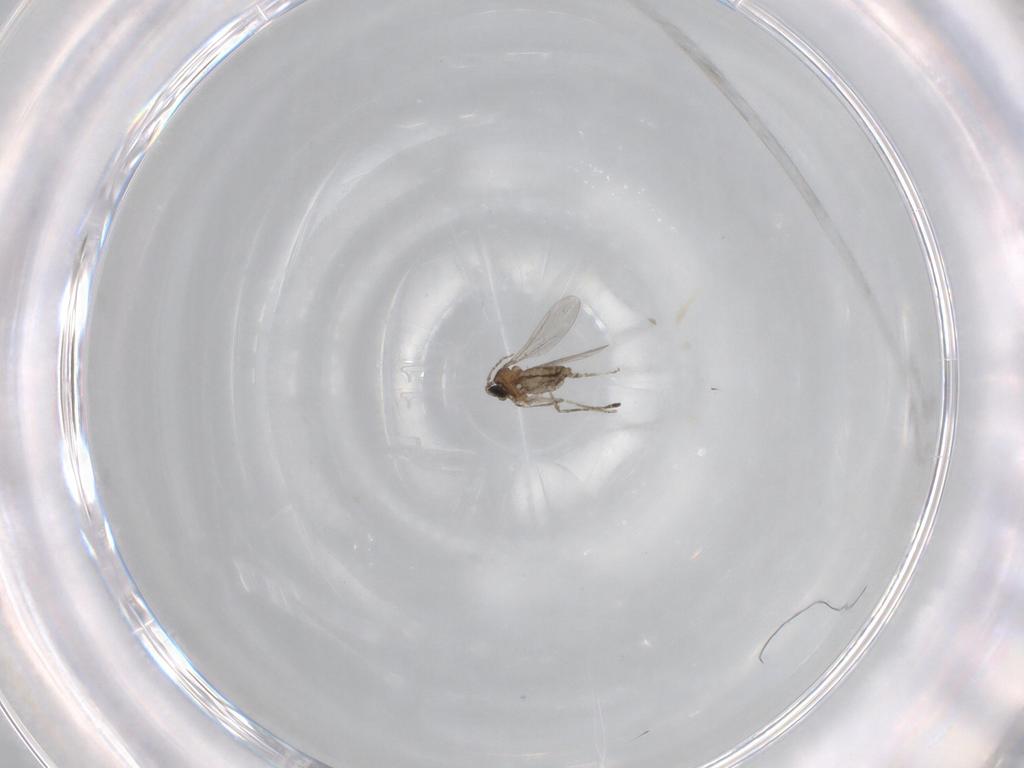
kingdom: Animalia
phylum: Arthropoda
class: Insecta
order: Diptera
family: Cecidomyiidae
